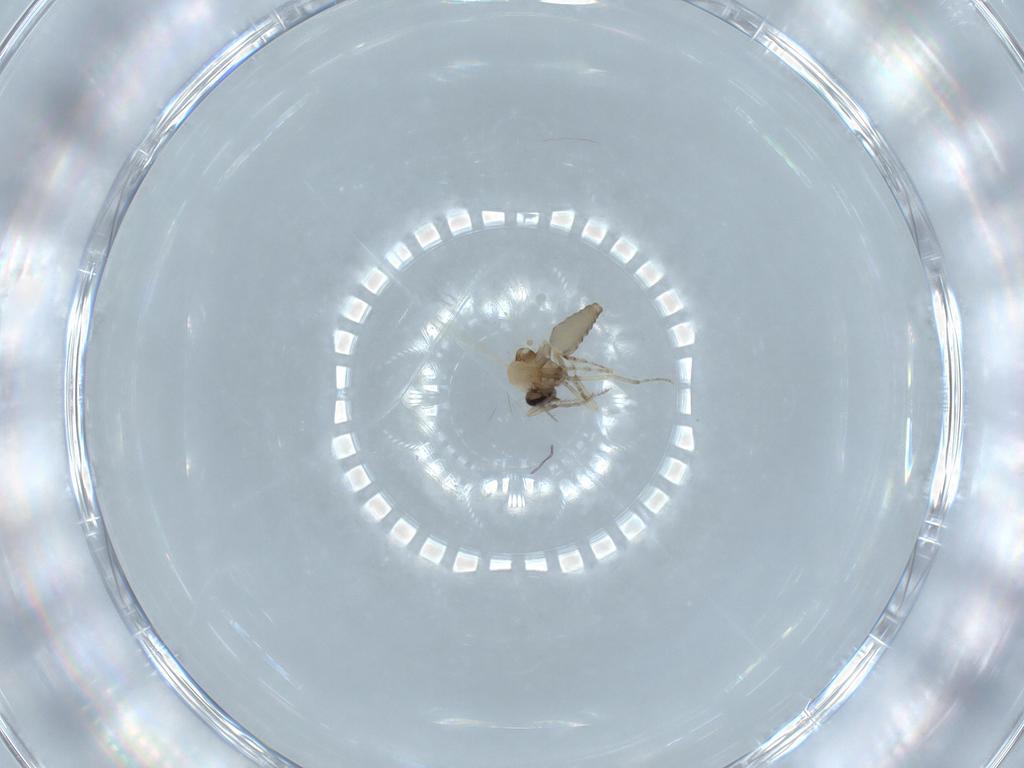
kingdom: Animalia
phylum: Arthropoda
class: Insecta
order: Diptera
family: Ceratopogonidae
